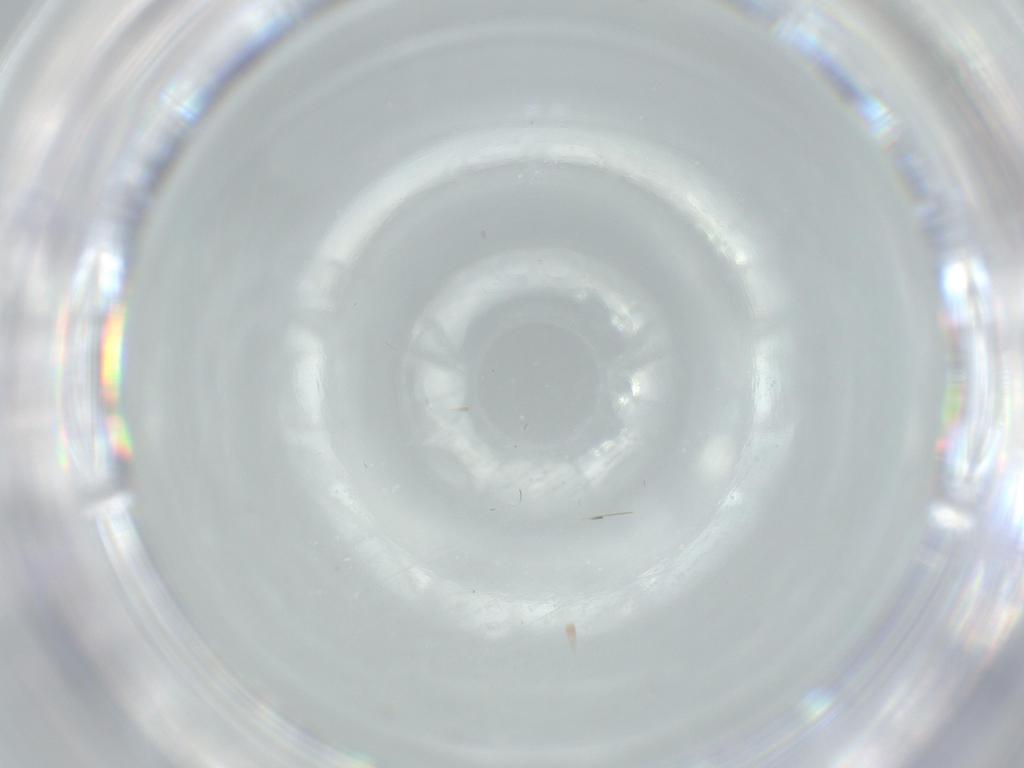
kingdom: Animalia
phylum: Arthropoda
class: Insecta
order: Diptera
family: Cecidomyiidae
